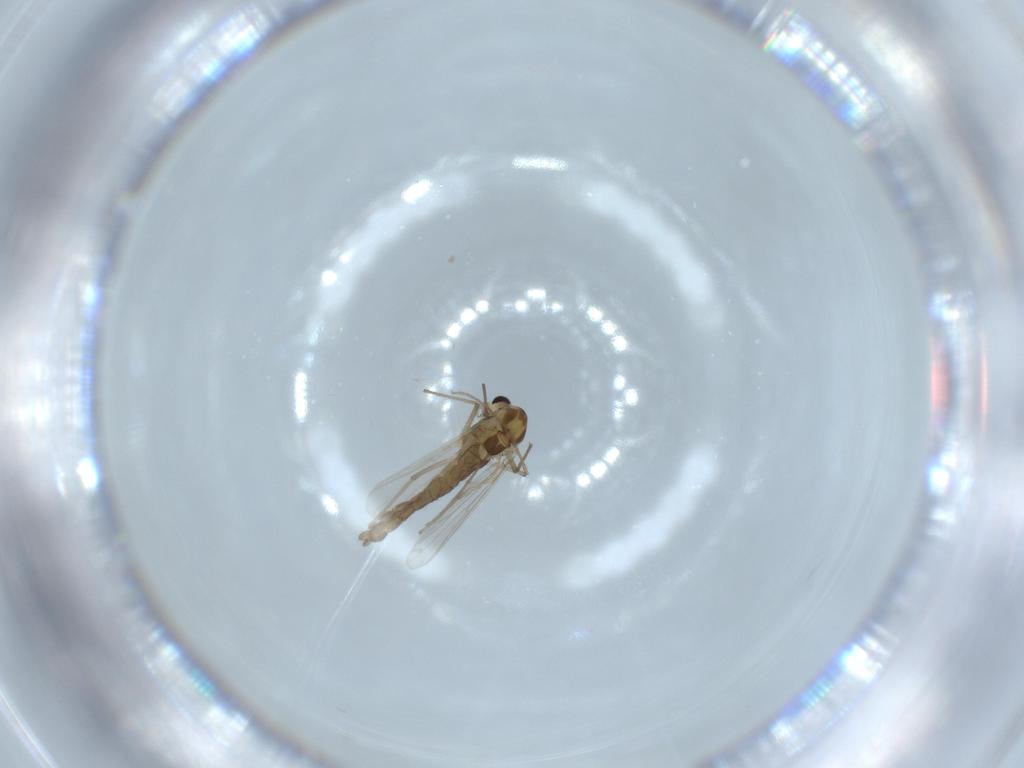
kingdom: Animalia
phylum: Arthropoda
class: Insecta
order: Diptera
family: Chironomidae
